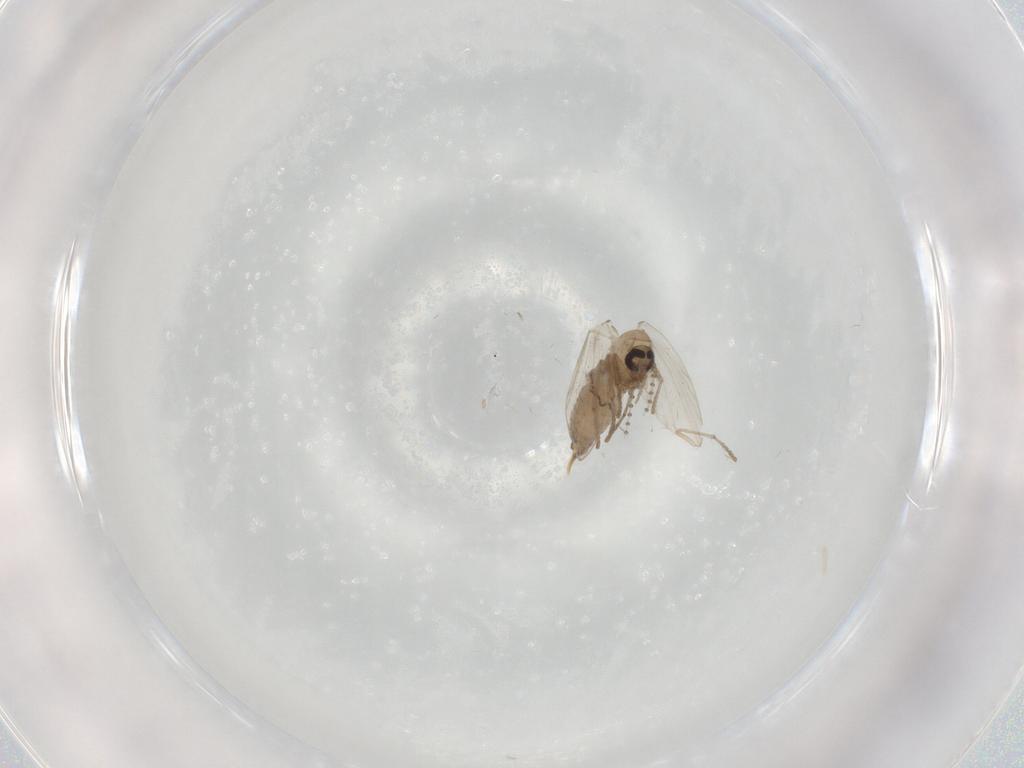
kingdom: Animalia
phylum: Arthropoda
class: Insecta
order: Diptera
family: Psychodidae
